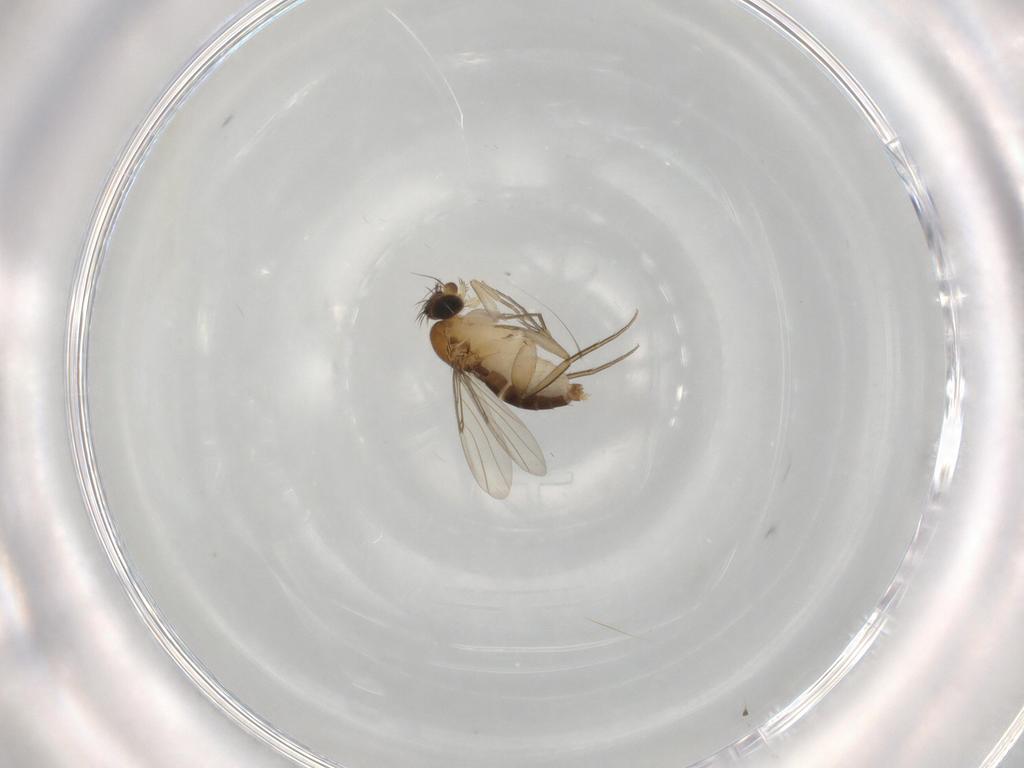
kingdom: Animalia
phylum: Arthropoda
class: Insecta
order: Diptera
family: Phoridae
